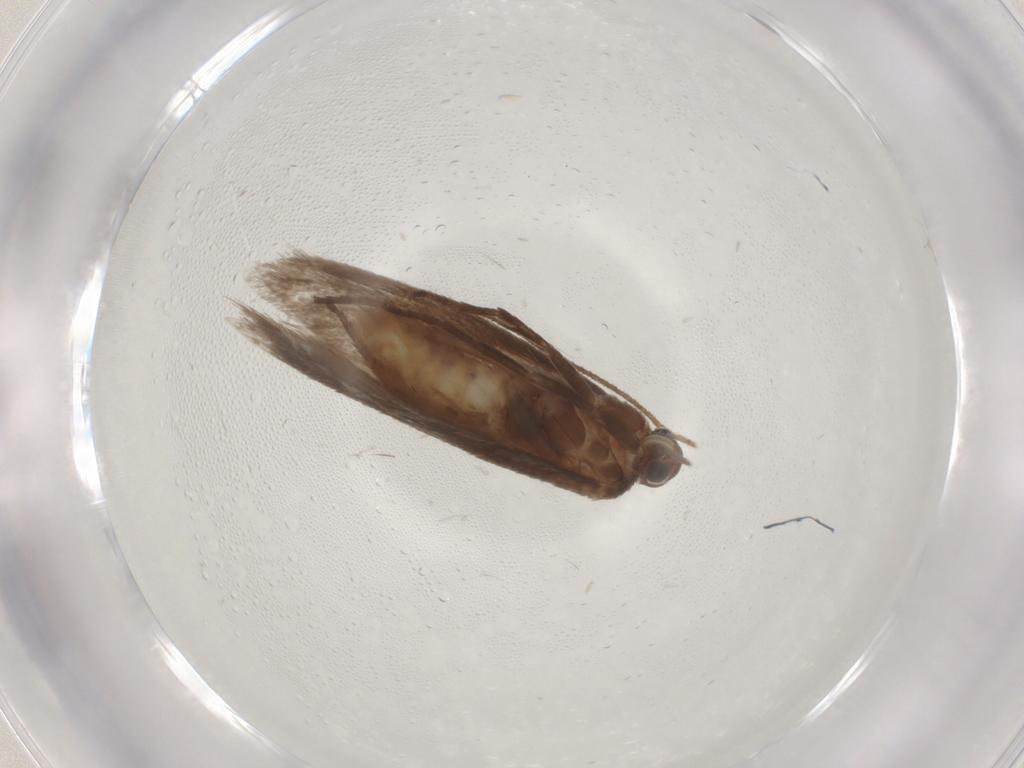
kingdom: Animalia
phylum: Arthropoda
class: Insecta
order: Lepidoptera
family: Limacodidae
